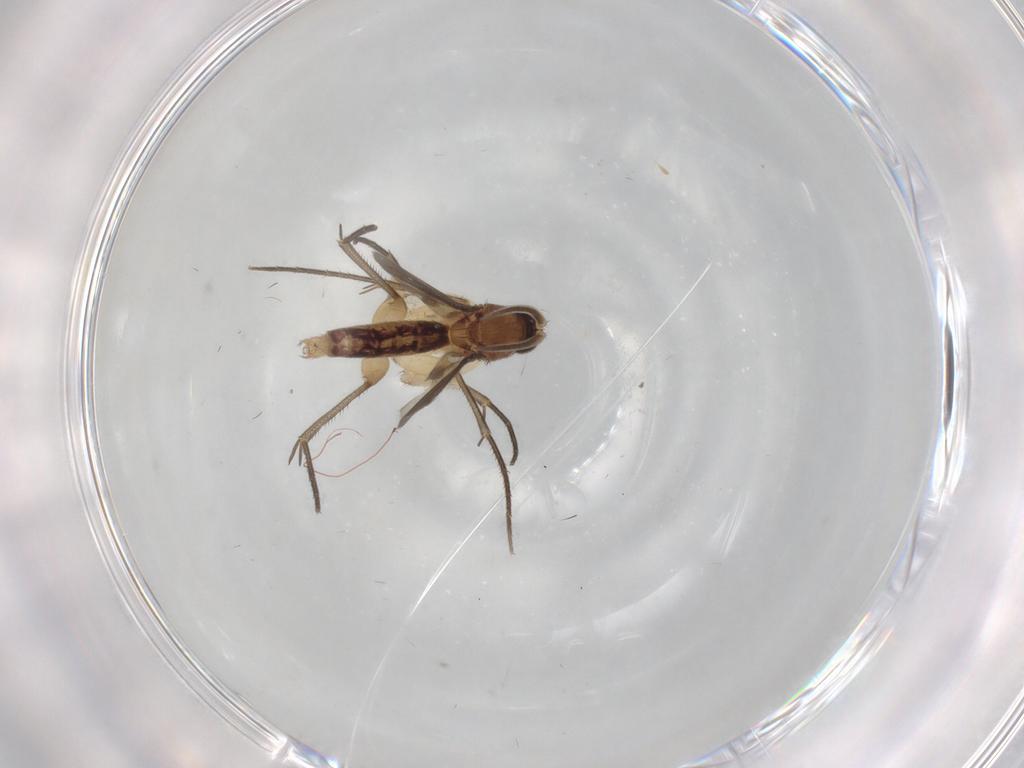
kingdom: Animalia
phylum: Arthropoda
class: Insecta
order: Diptera
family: Mycetophilidae
